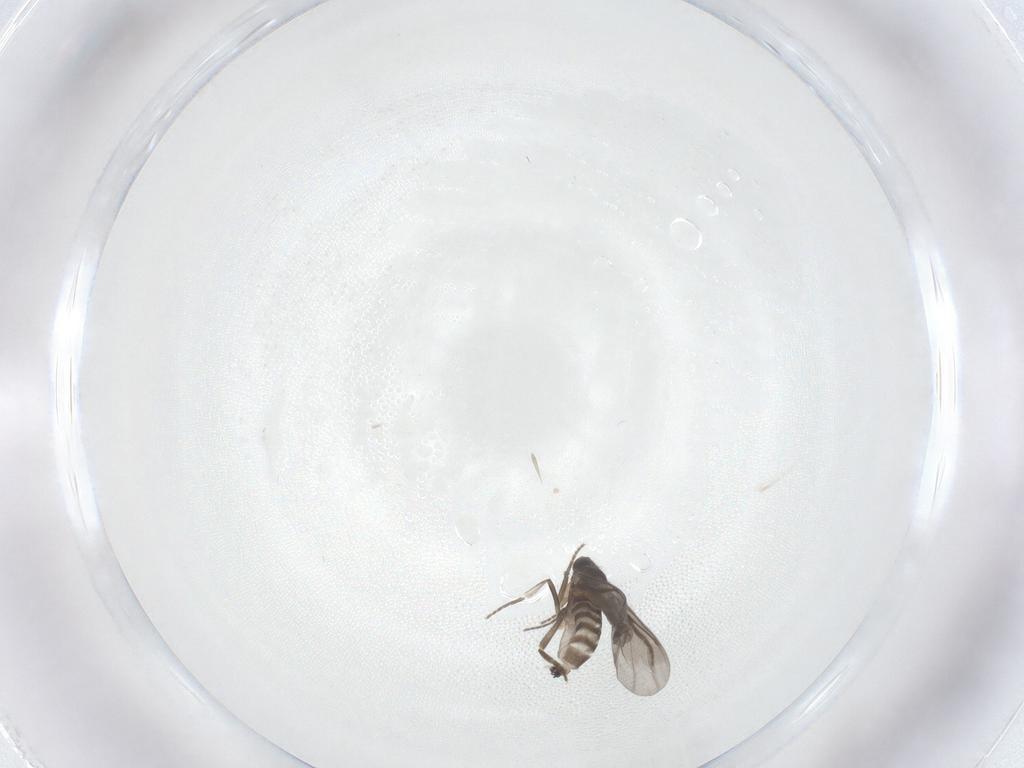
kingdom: Animalia
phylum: Arthropoda
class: Insecta
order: Diptera
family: Phoridae
